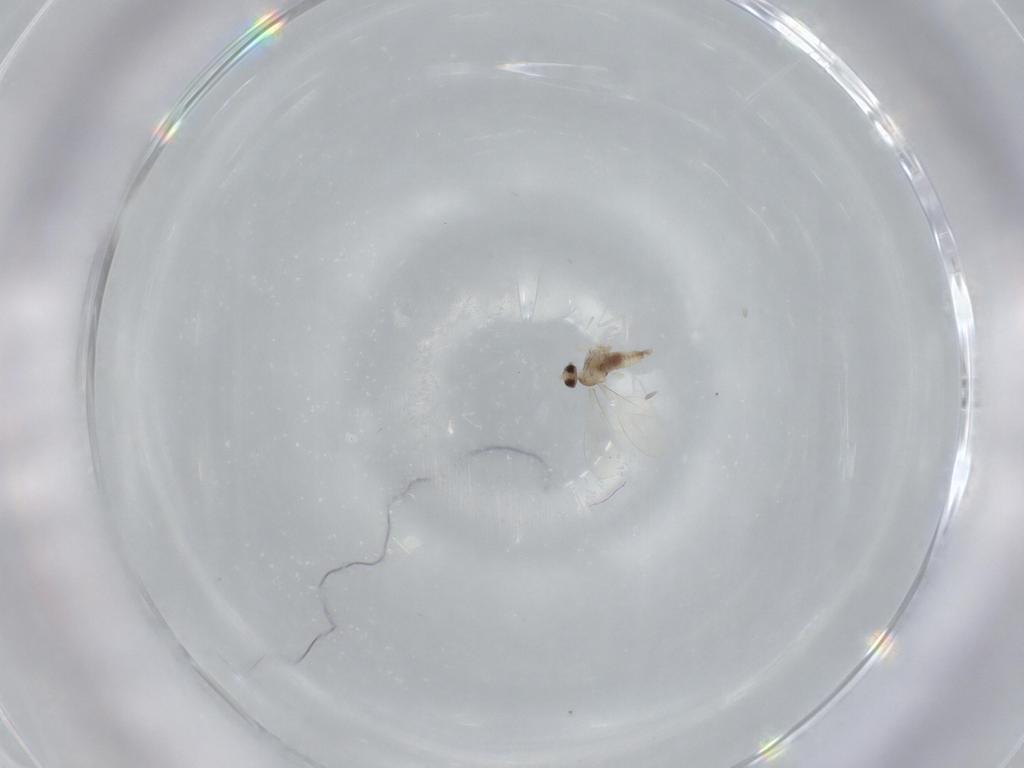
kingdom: Animalia
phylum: Arthropoda
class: Insecta
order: Diptera
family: Cecidomyiidae
